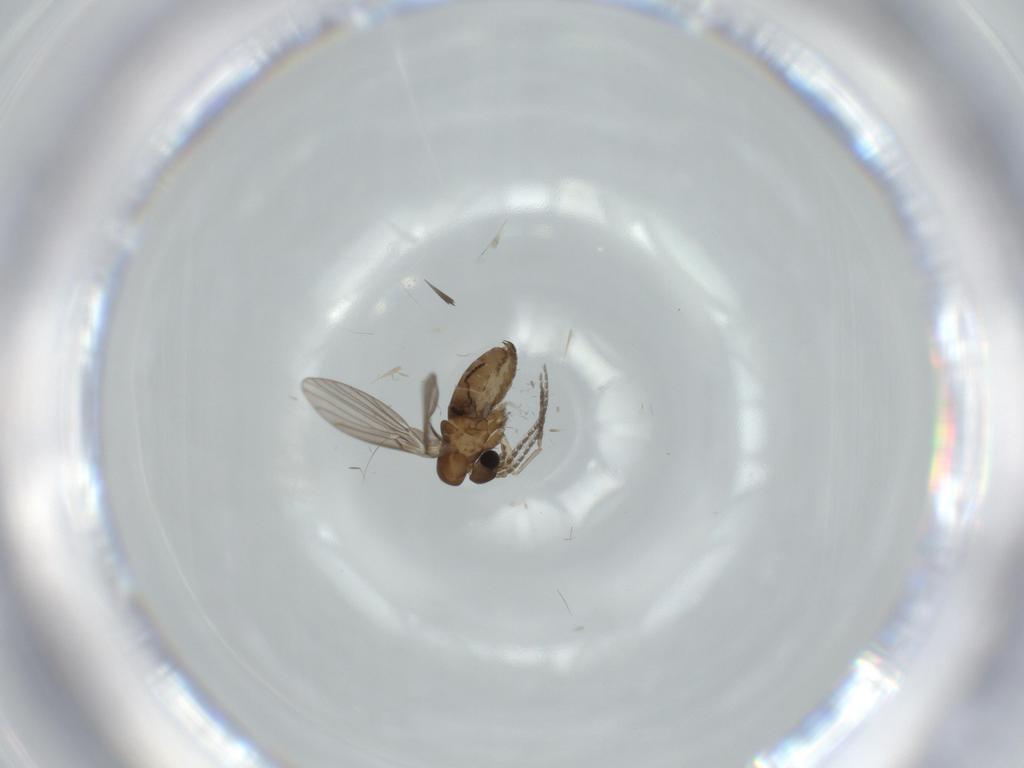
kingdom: Animalia
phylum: Arthropoda
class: Insecta
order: Diptera
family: Psychodidae
